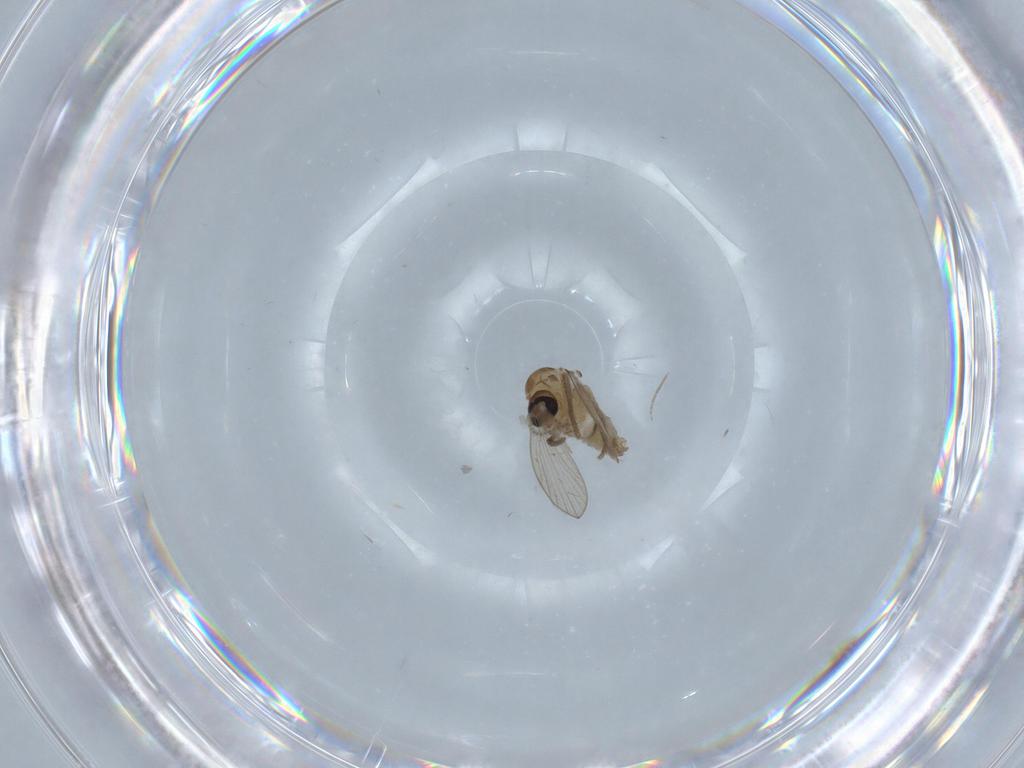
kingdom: Animalia
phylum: Arthropoda
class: Insecta
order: Diptera
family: Chironomidae
